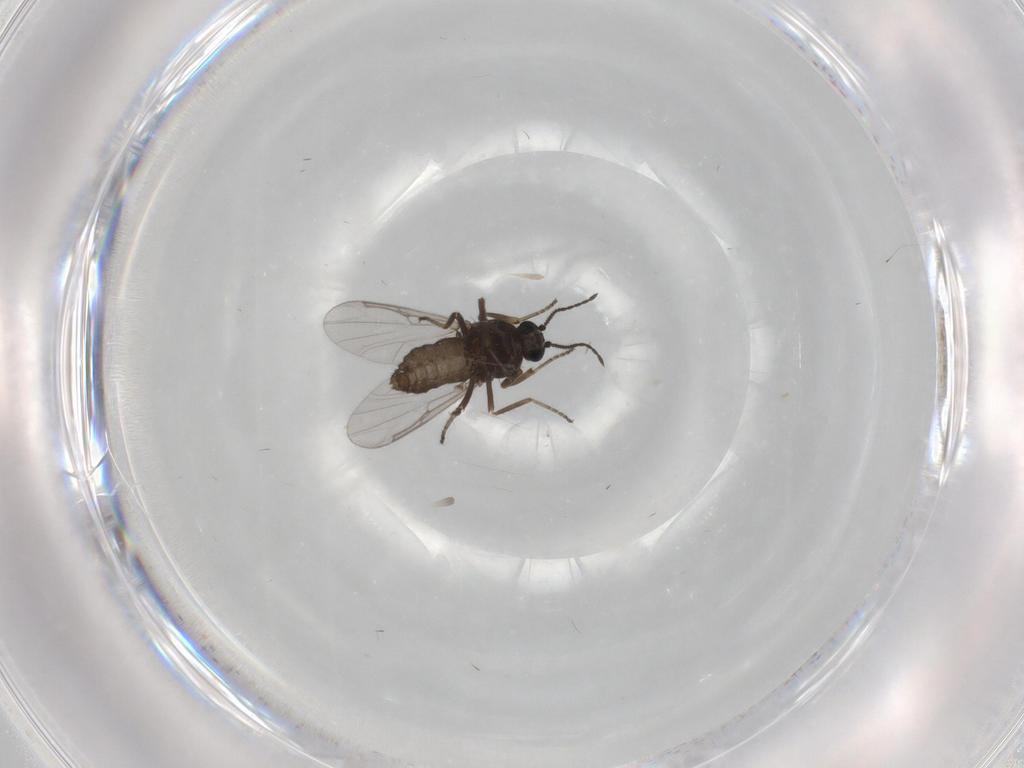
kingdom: Animalia
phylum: Arthropoda
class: Insecta
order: Diptera
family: Ceratopogonidae
